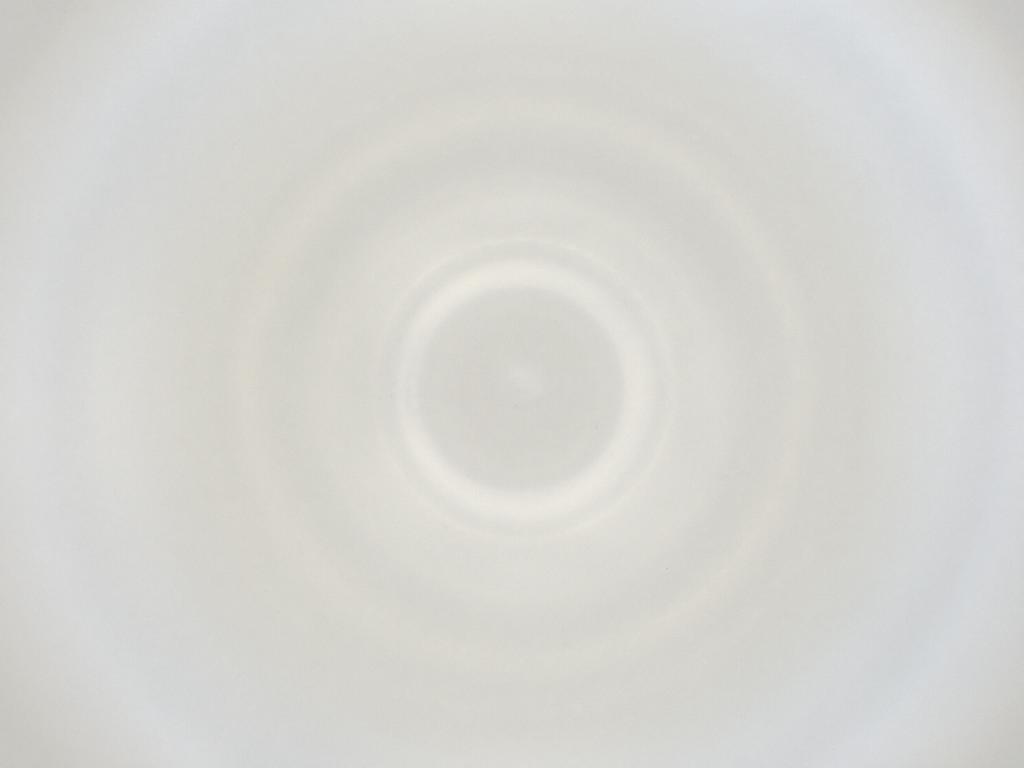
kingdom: Animalia
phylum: Arthropoda
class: Insecta
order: Diptera
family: Cecidomyiidae
